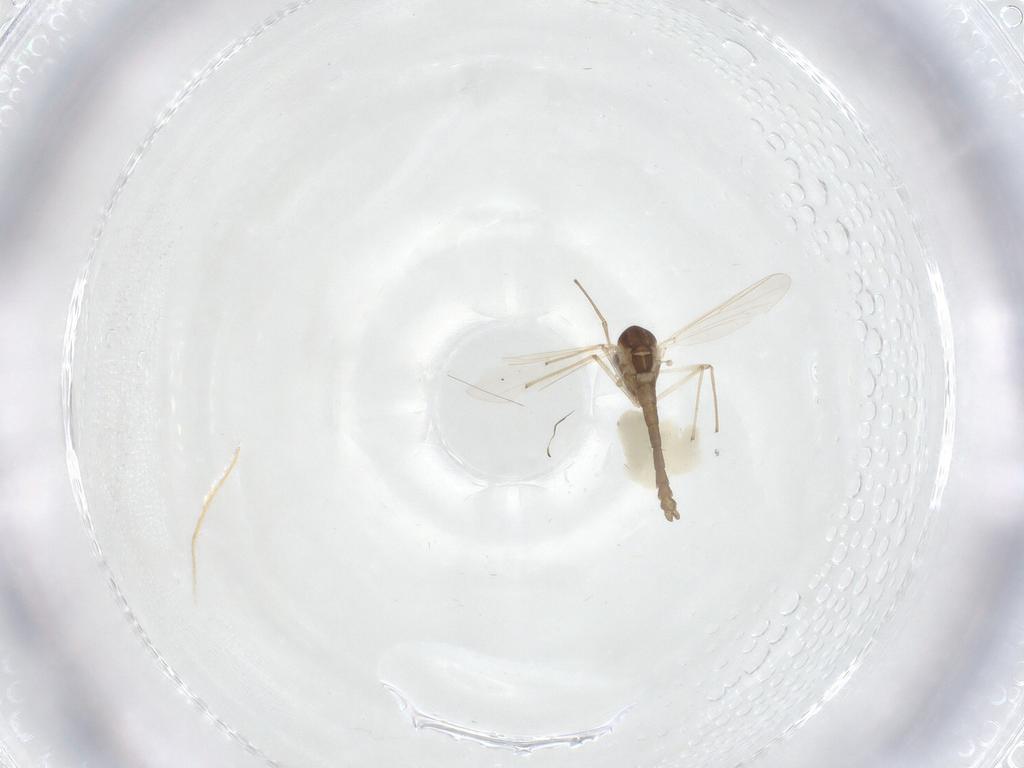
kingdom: Animalia
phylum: Arthropoda
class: Insecta
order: Diptera
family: Chironomidae
